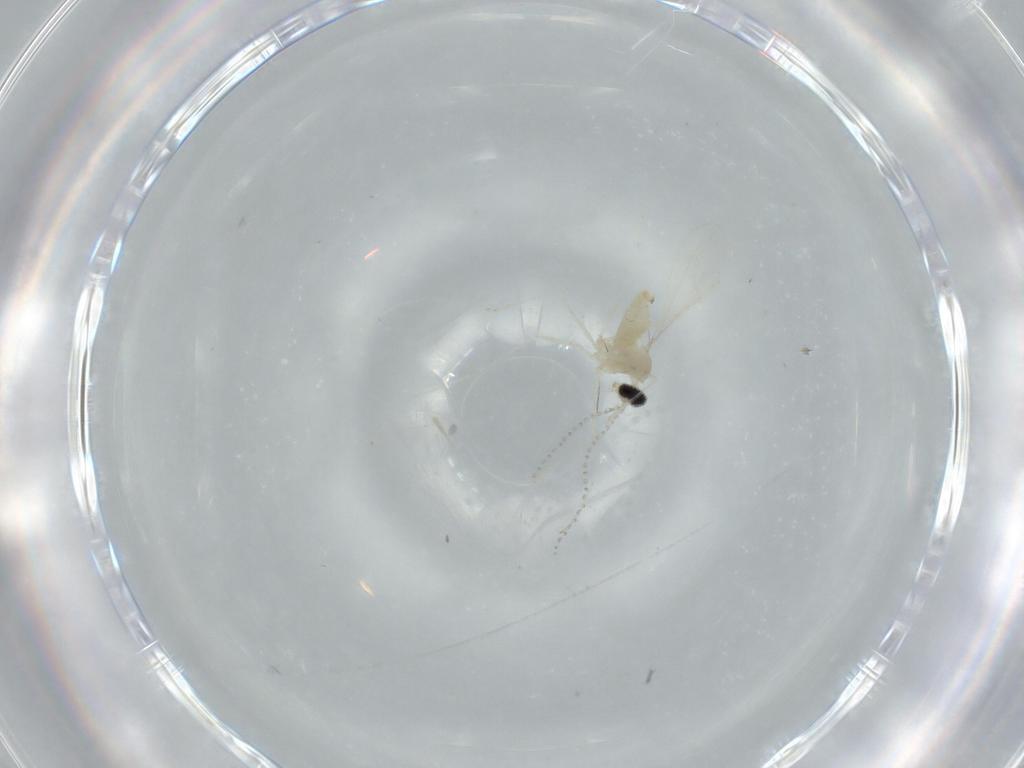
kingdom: Animalia
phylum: Arthropoda
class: Insecta
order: Diptera
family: Cecidomyiidae
